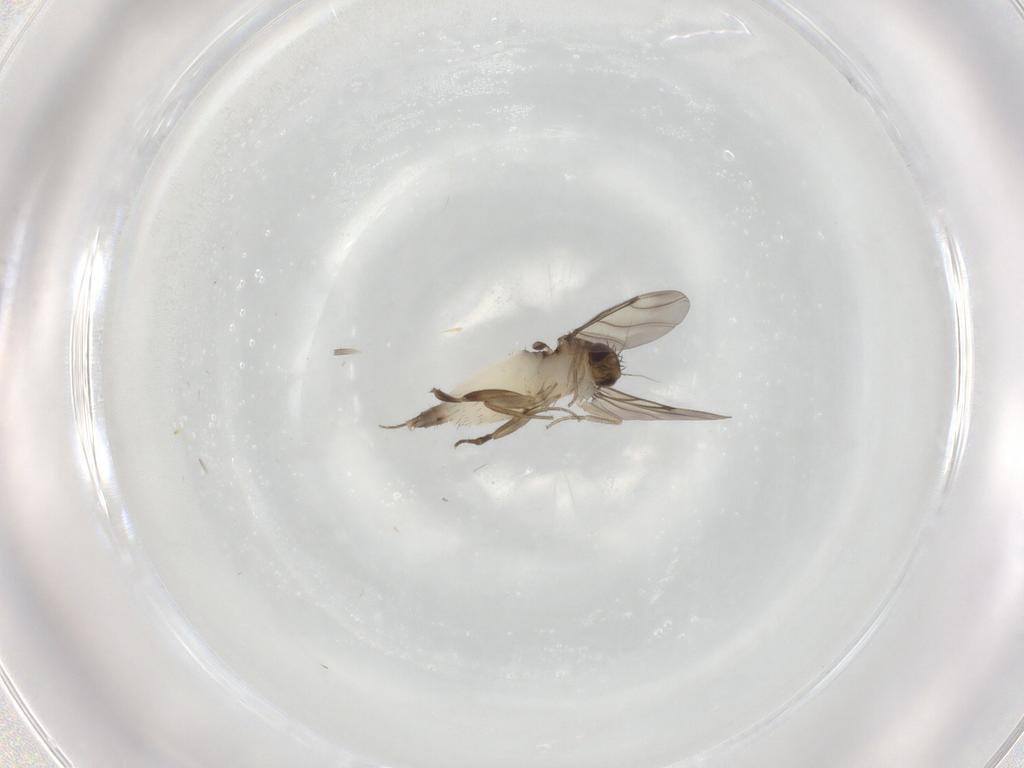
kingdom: Animalia
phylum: Arthropoda
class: Insecta
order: Diptera
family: Phoridae
